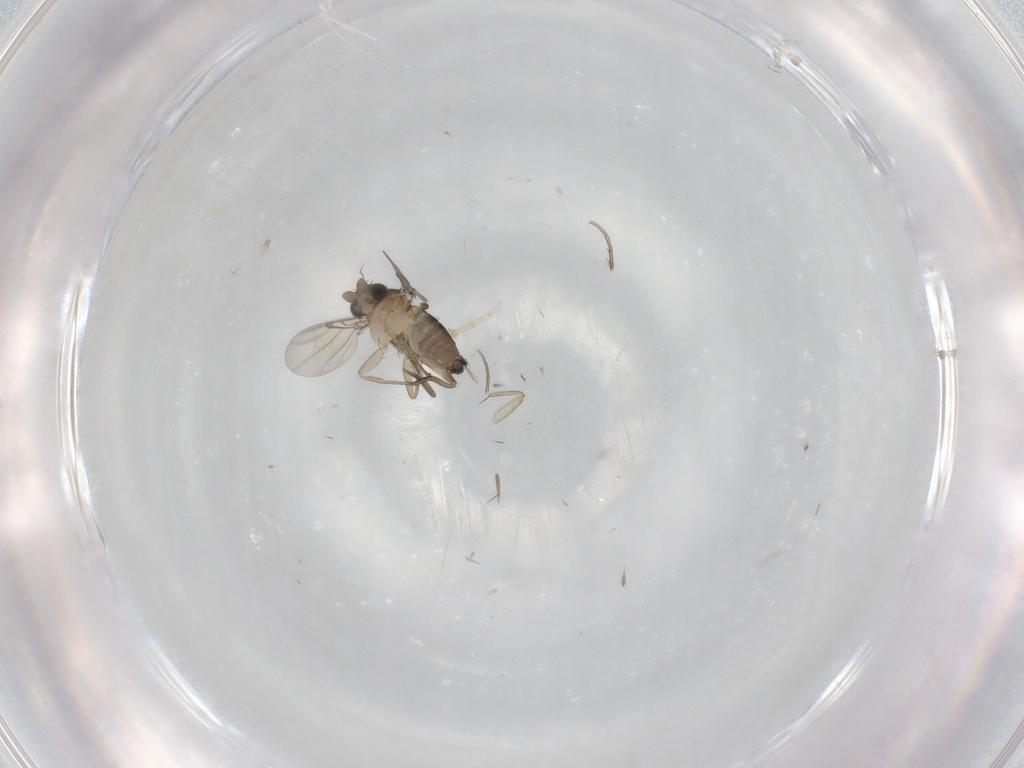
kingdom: Animalia
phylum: Arthropoda
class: Insecta
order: Diptera
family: Phoridae
